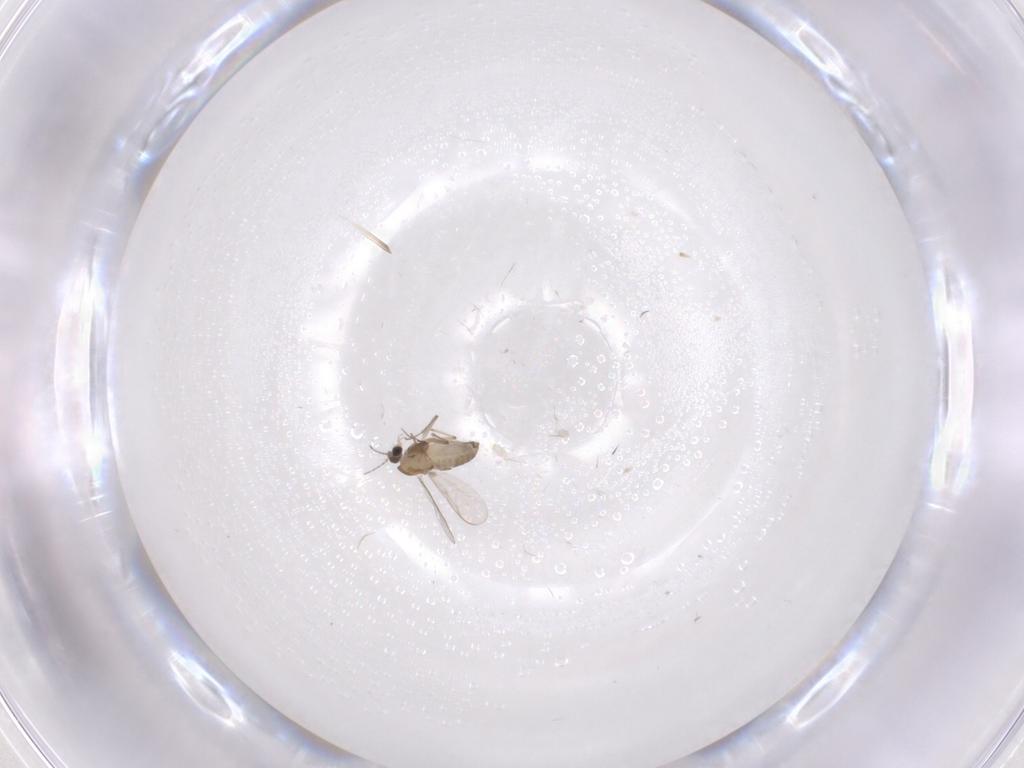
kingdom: Animalia
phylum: Arthropoda
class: Insecta
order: Diptera
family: Chironomidae
